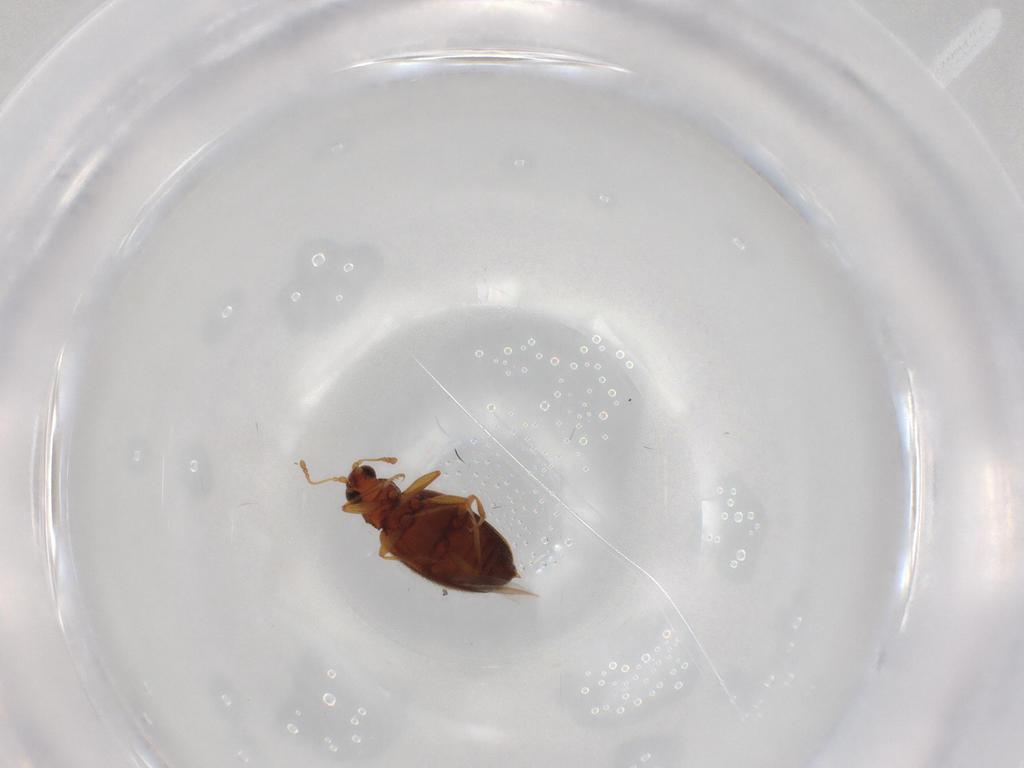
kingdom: Animalia
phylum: Arthropoda
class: Insecta
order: Coleoptera
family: Latridiidae
